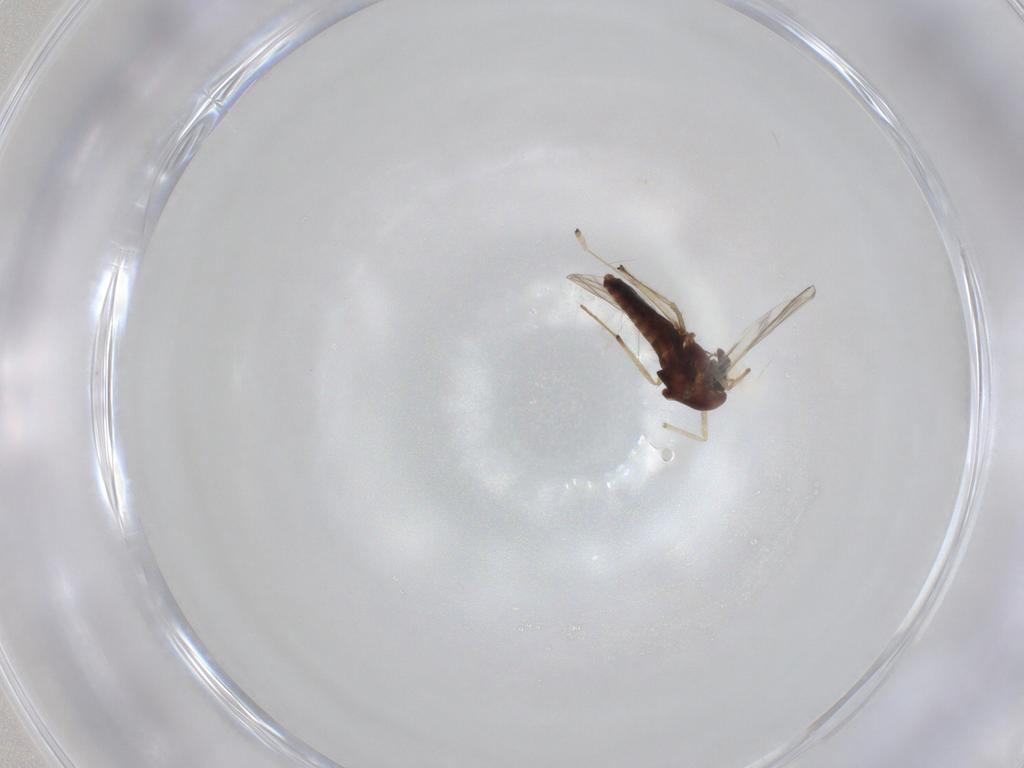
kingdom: Animalia
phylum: Arthropoda
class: Insecta
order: Diptera
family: Chironomidae
